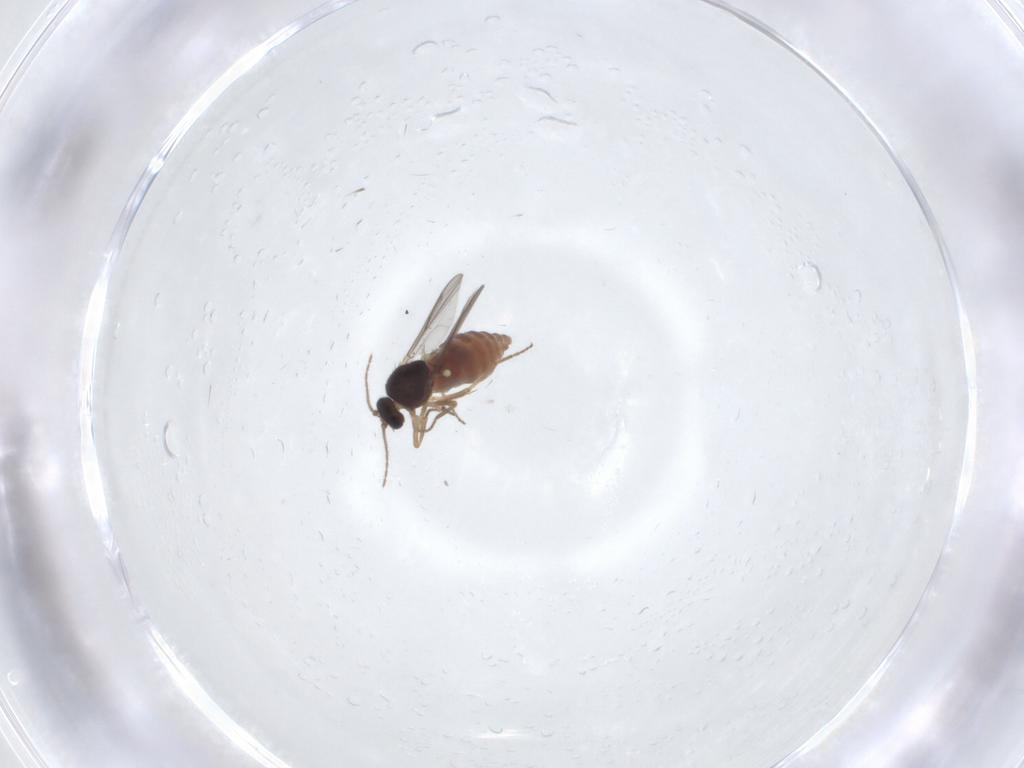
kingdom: Animalia
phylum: Arthropoda
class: Insecta
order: Diptera
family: Ceratopogonidae
